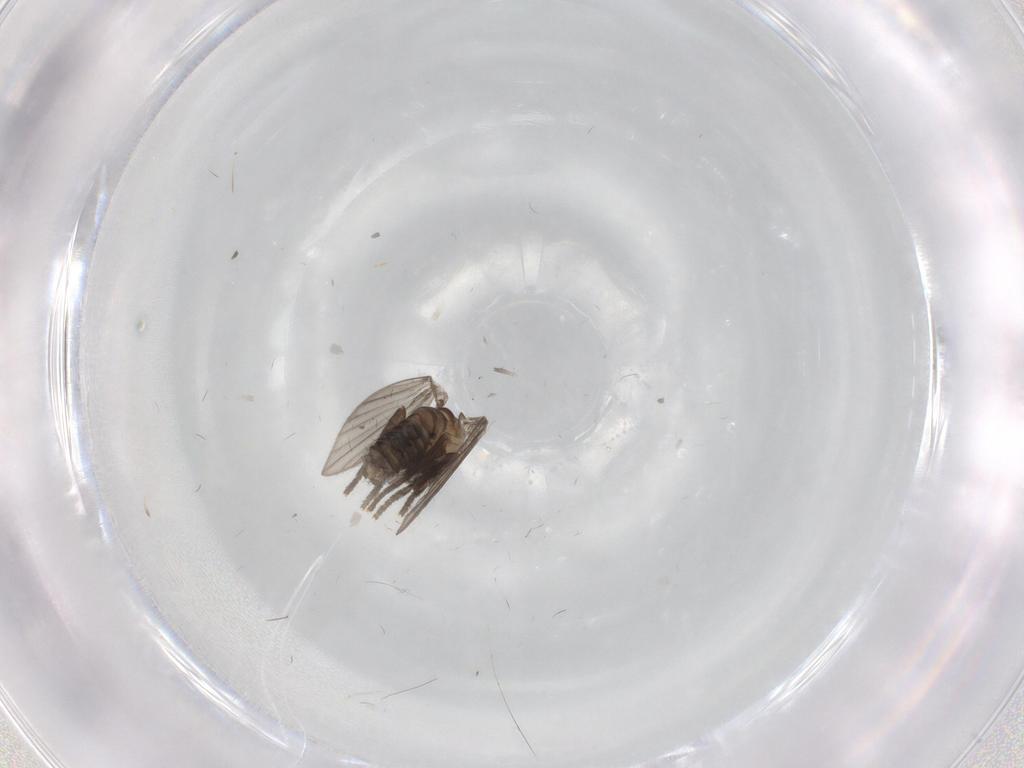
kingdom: Animalia
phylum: Arthropoda
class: Insecta
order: Diptera
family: Psychodidae
